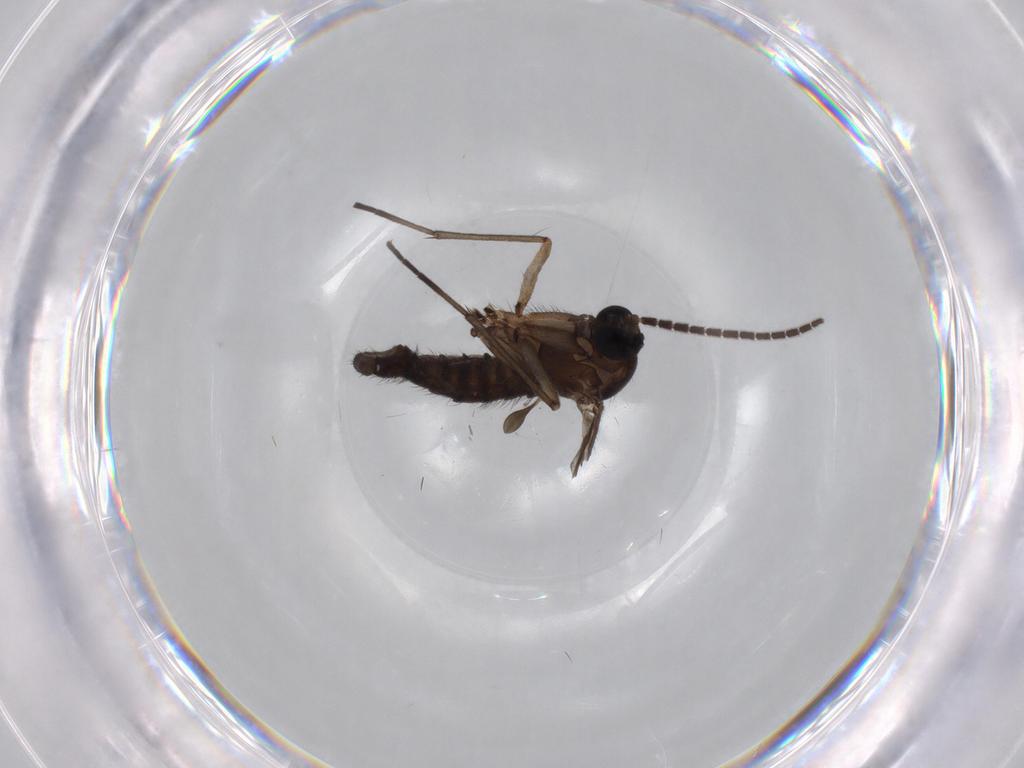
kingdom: Animalia
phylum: Arthropoda
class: Insecta
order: Diptera
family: Sciaridae
